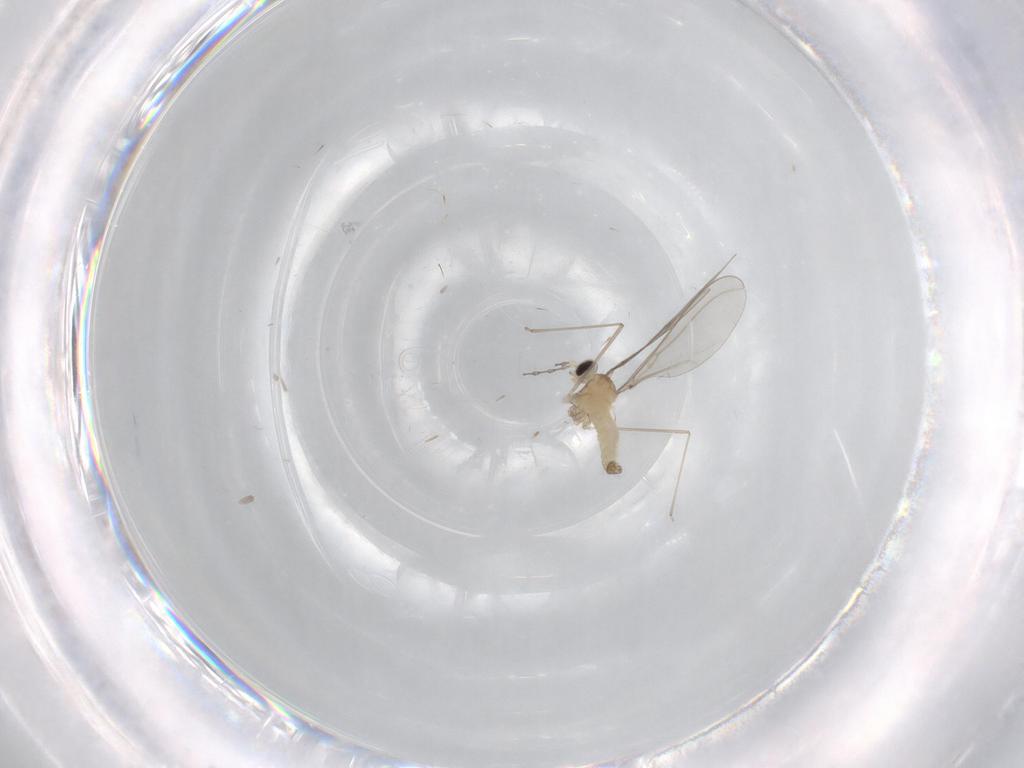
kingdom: Animalia
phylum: Arthropoda
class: Insecta
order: Diptera
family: Cecidomyiidae
